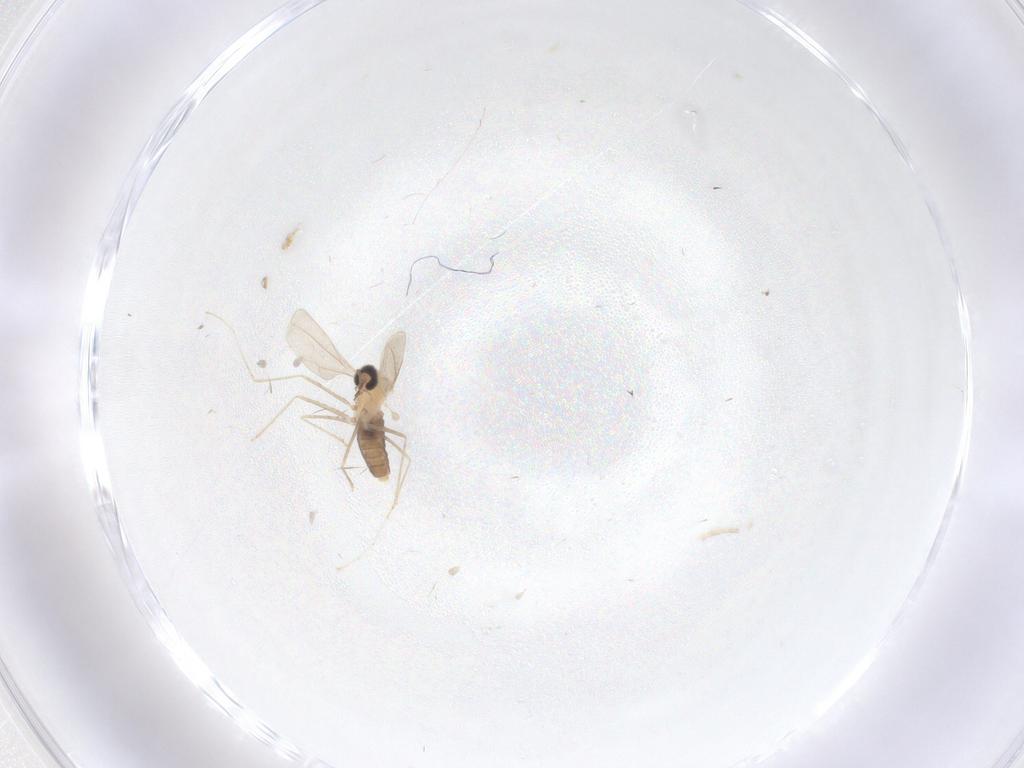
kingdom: Animalia
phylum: Arthropoda
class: Insecta
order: Diptera
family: Cecidomyiidae
